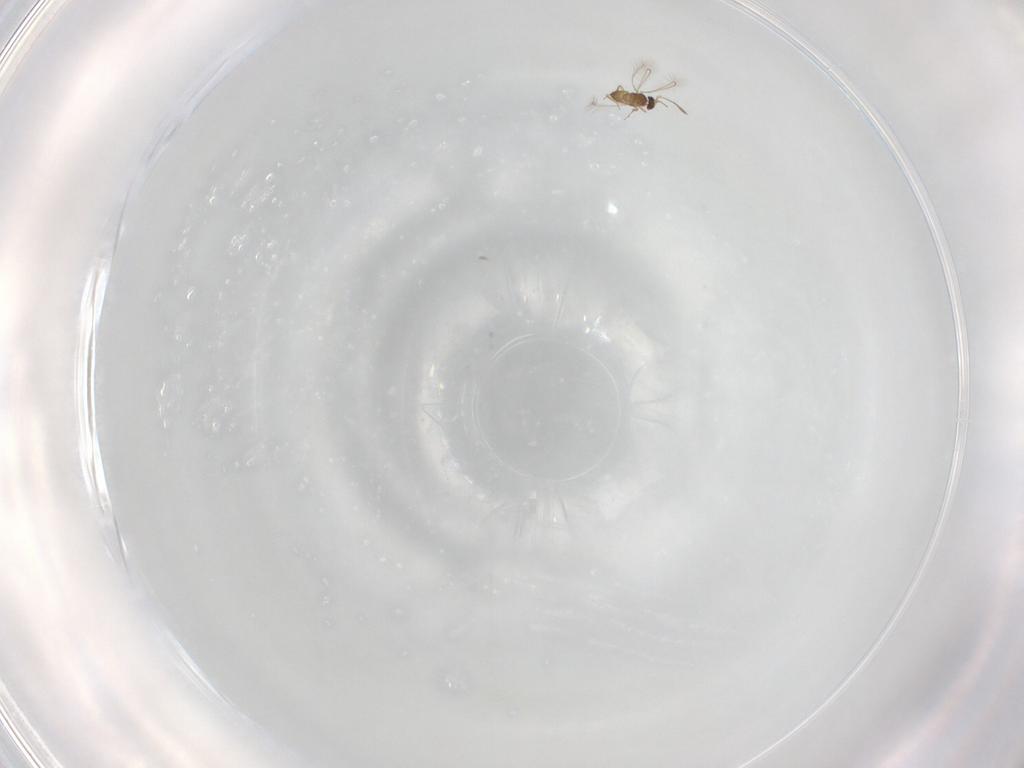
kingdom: Animalia
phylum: Arthropoda
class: Insecta
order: Hymenoptera
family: Mymaridae
